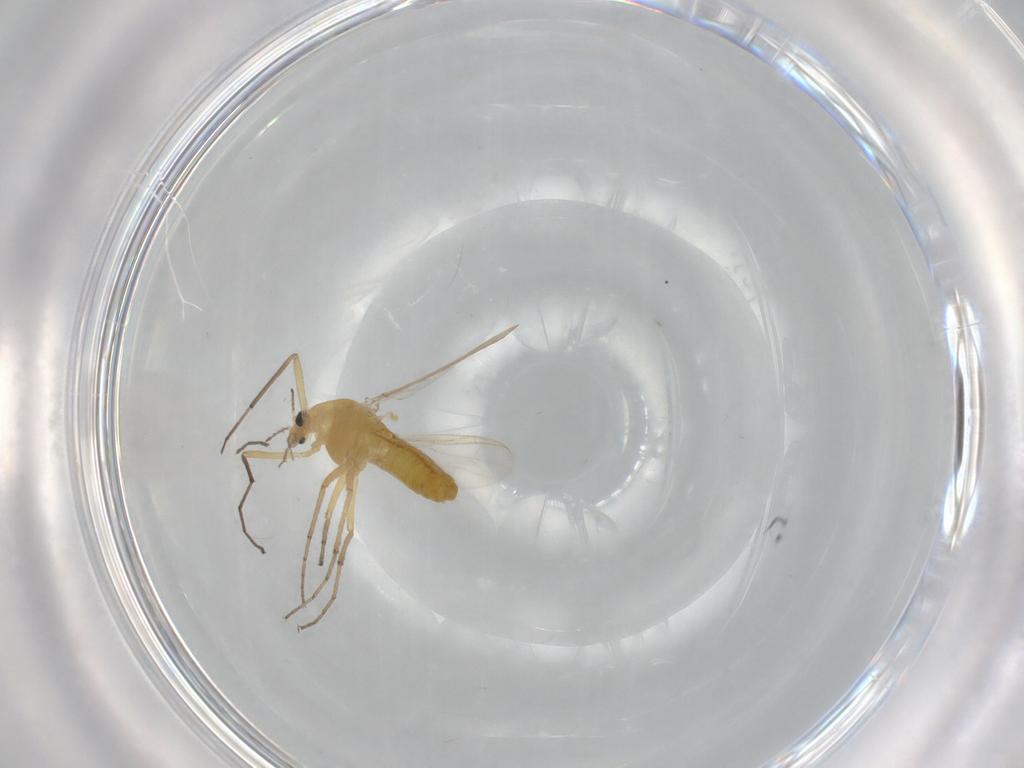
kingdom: Animalia
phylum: Arthropoda
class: Insecta
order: Diptera
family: Chironomidae
